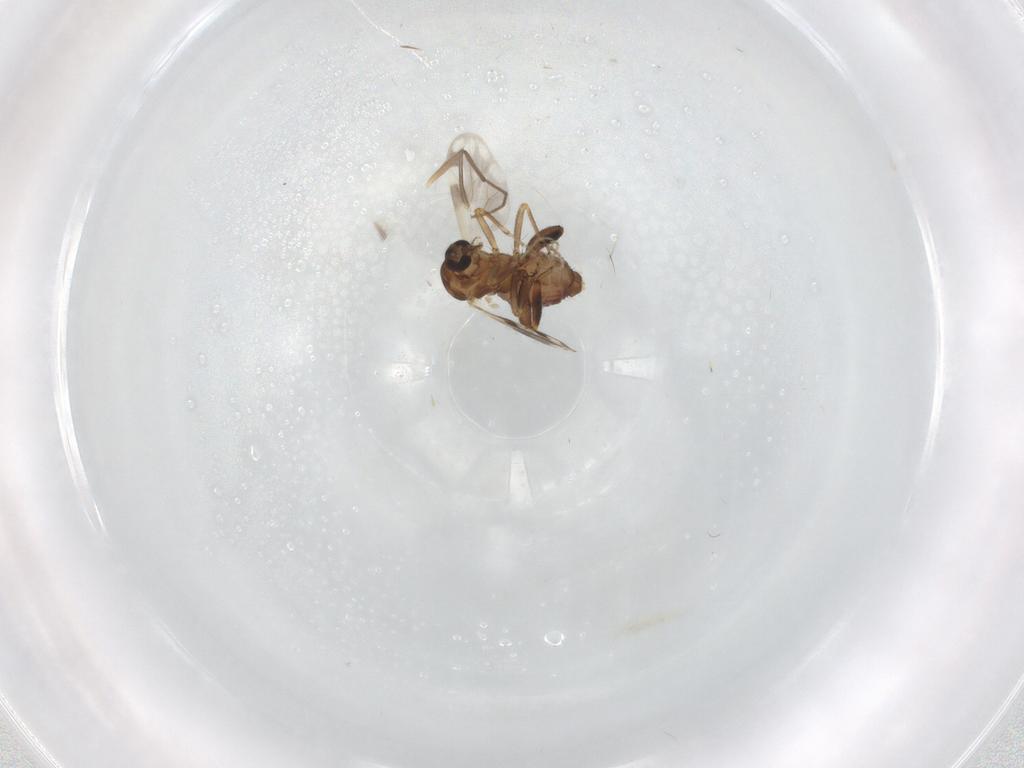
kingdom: Animalia
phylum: Arthropoda
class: Insecta
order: Diptera
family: Ceratopogonidae
